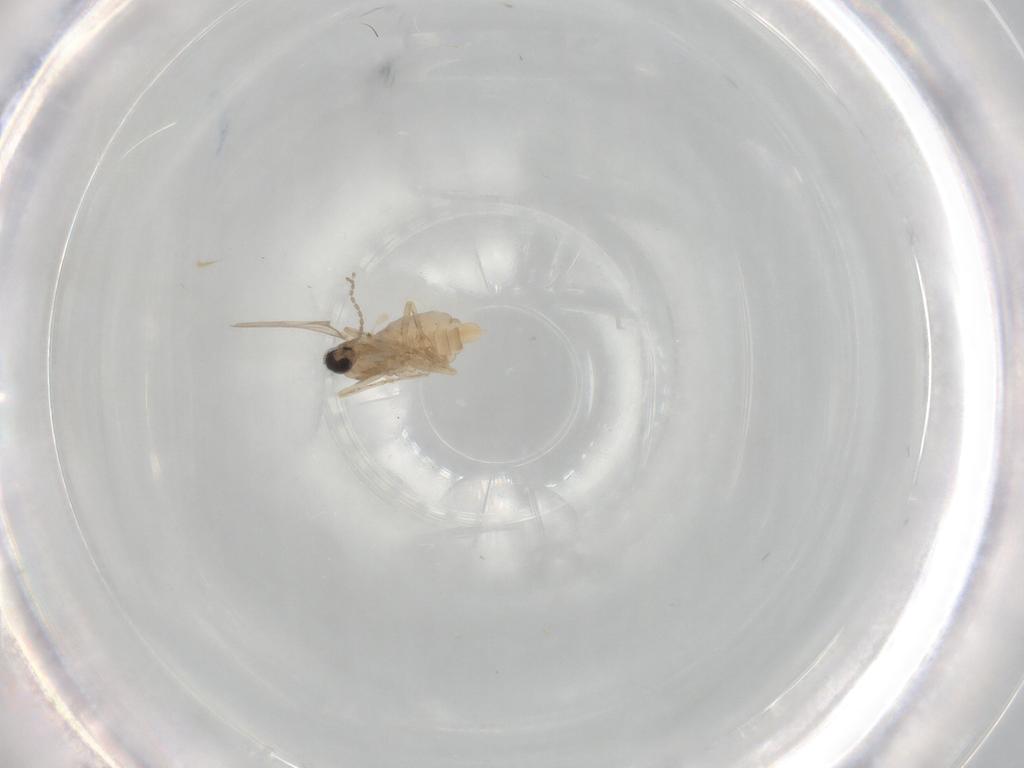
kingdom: Animalia
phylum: Arthropoda
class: Insecta
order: Diptera
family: Cecidomyiidae
